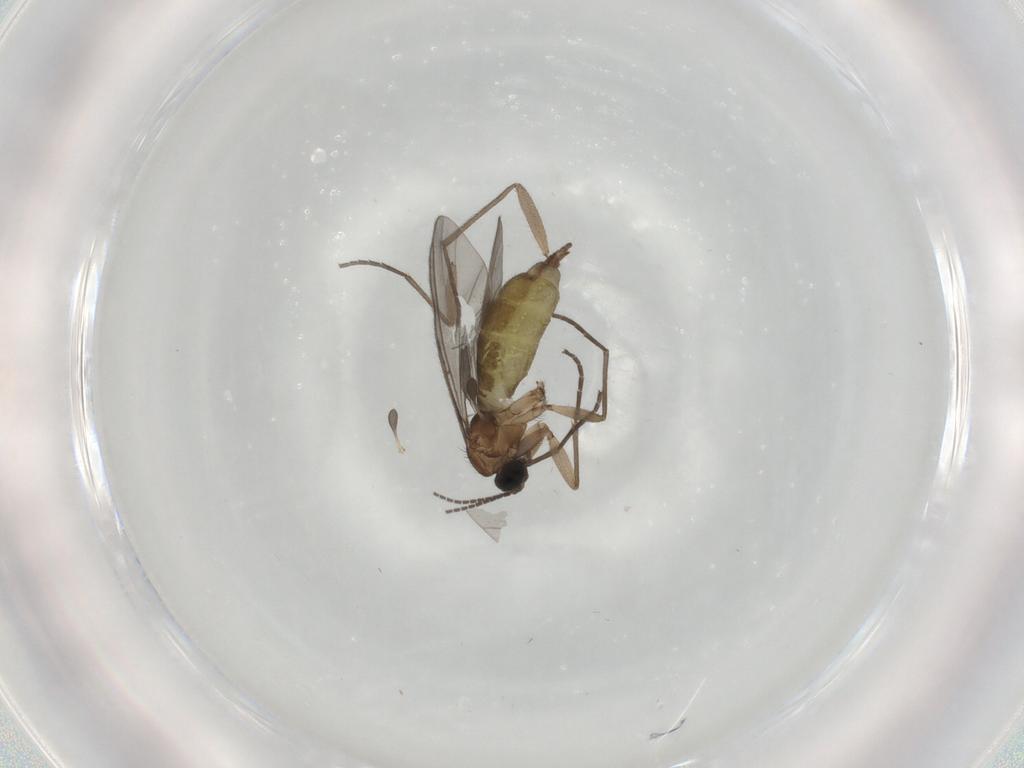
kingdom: Animalia
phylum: Arthropoda
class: Insecta
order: Diptera
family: Sciaridae
